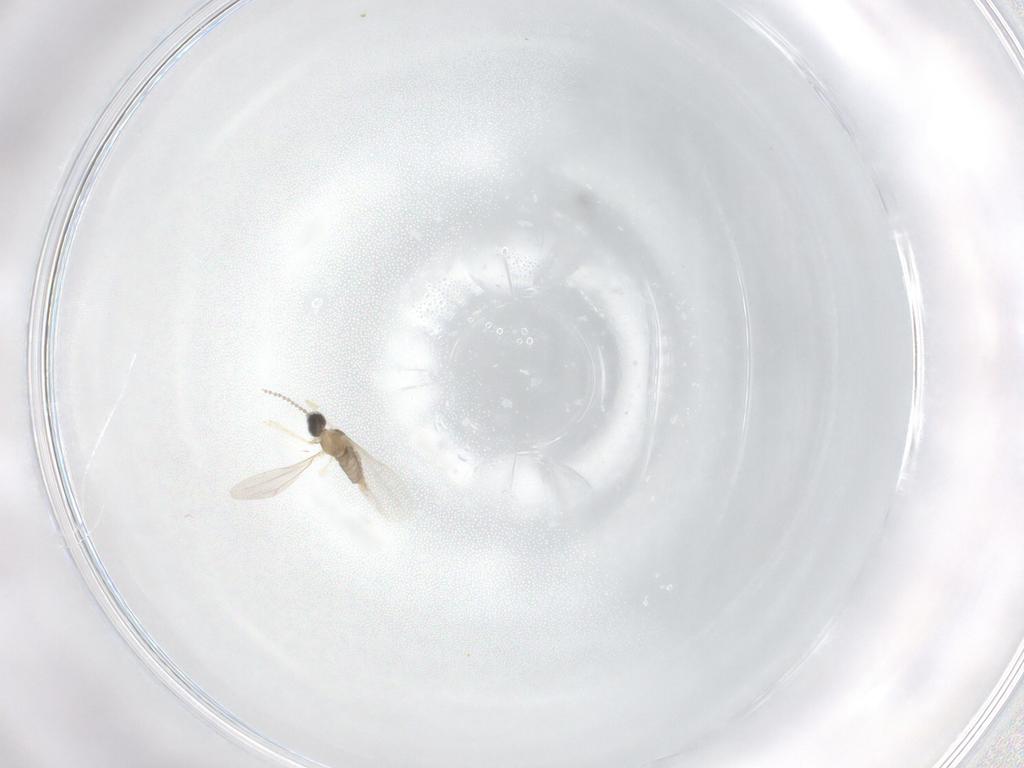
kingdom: Animalia
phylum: Arthropoda
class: Insecta
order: Diptera
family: Cecidomyiidae
